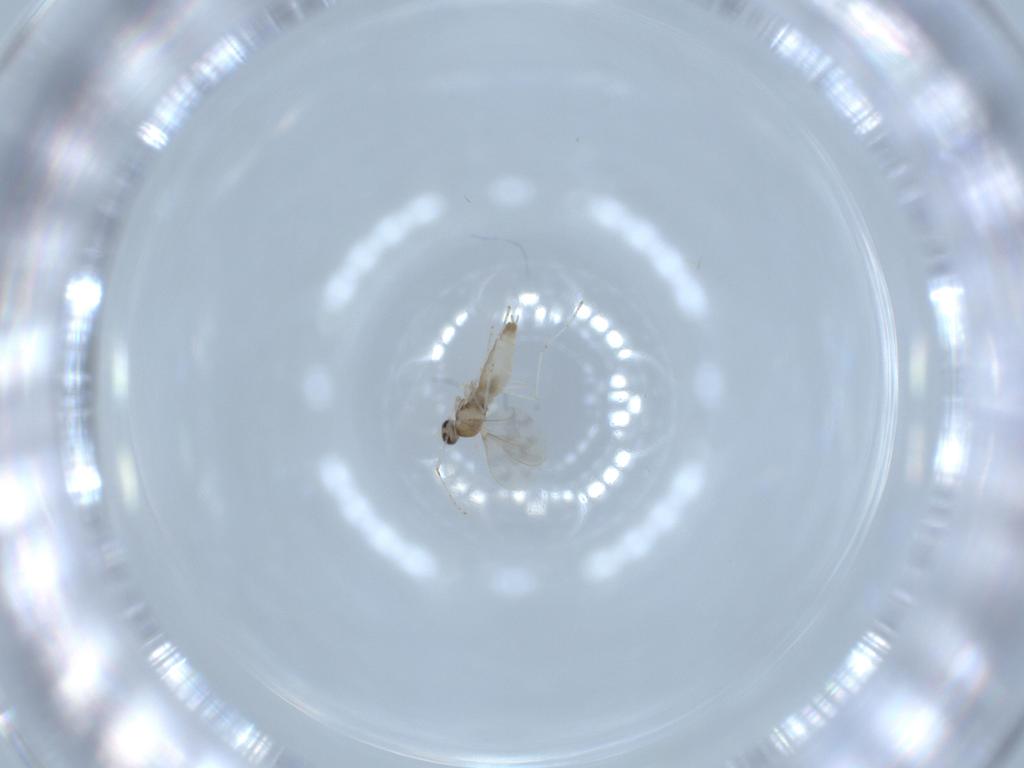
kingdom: Animalia
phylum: Arthropoda
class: Insecta
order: Diptera
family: Cecidomyiidae
